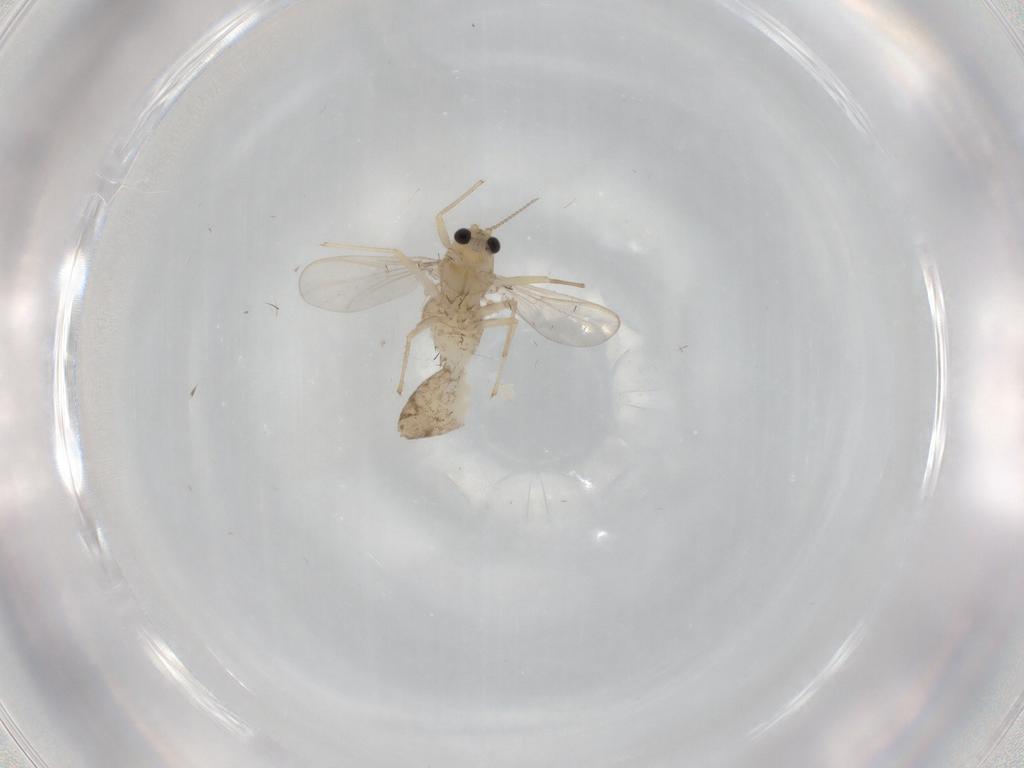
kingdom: Animalia
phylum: Arthropoda
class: Insecta
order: Diptera
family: Chironomidae
